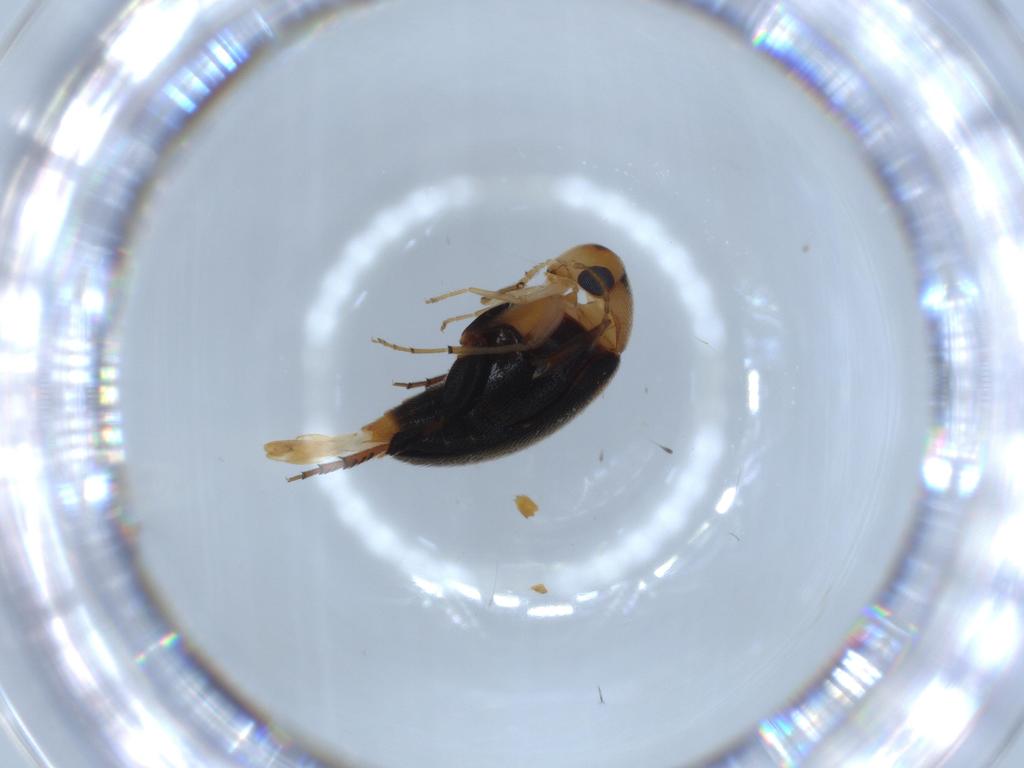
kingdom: Animalia
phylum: Arthropoda
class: Insecta
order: Coleoptera
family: Mordellidae
